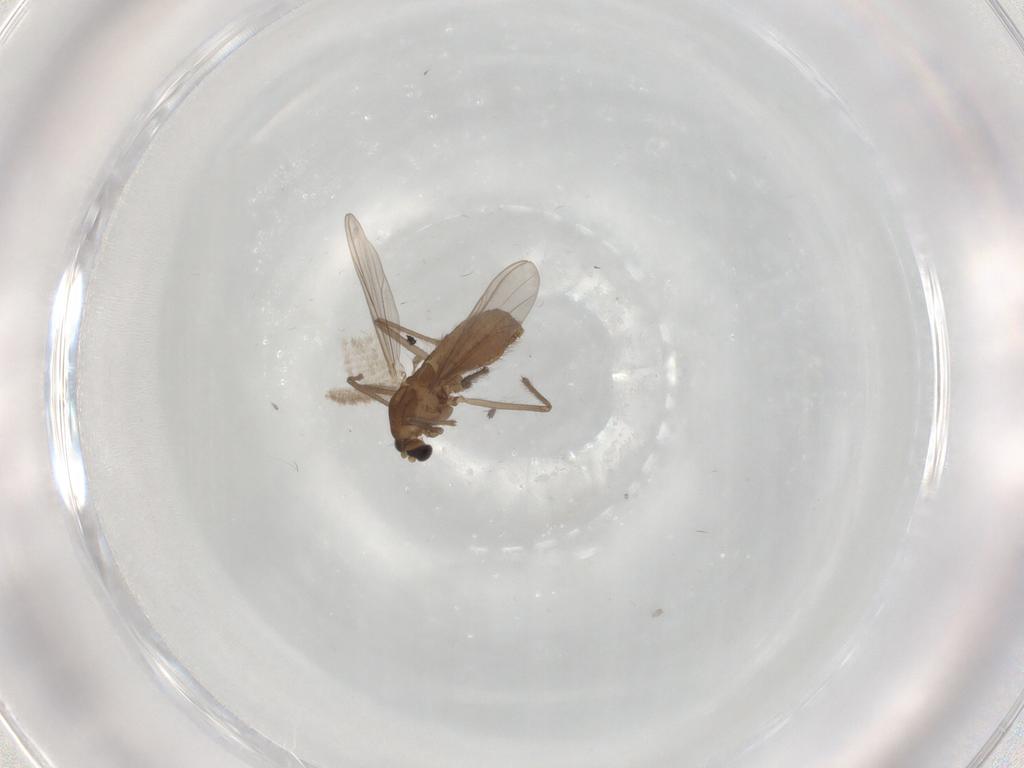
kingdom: Animalia
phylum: Arthropoda
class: Insecta
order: Diptera
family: Chironomidae
